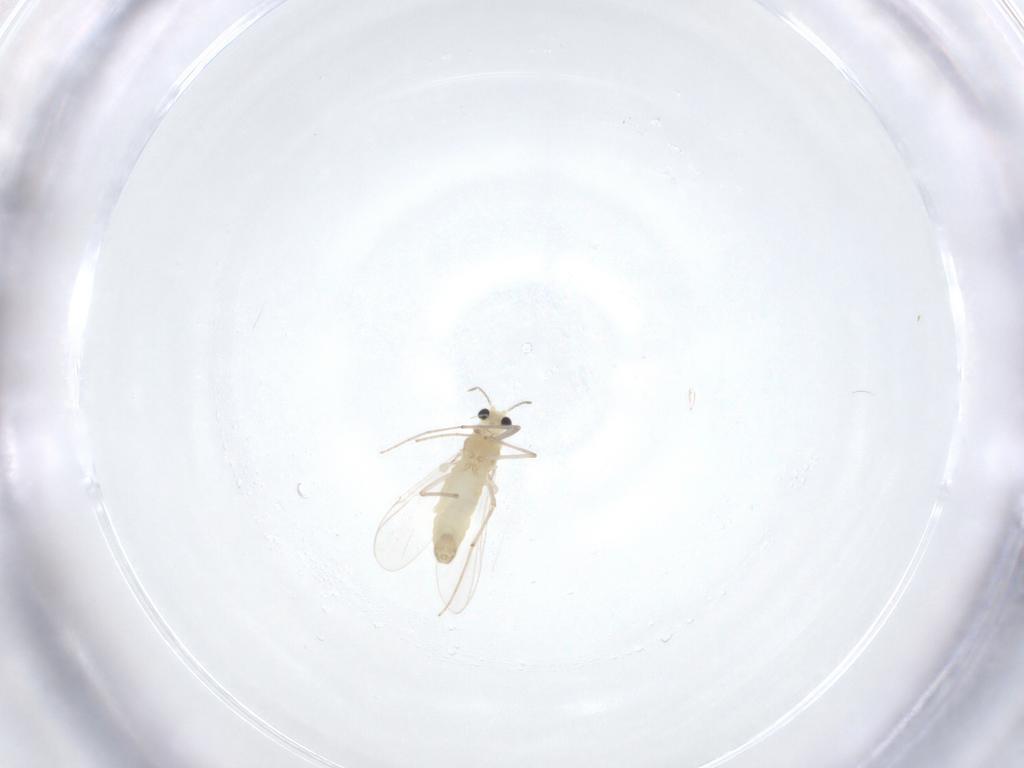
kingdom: Animalia
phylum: Arthropoda
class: Insecta
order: Diptera
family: Chironomidae
